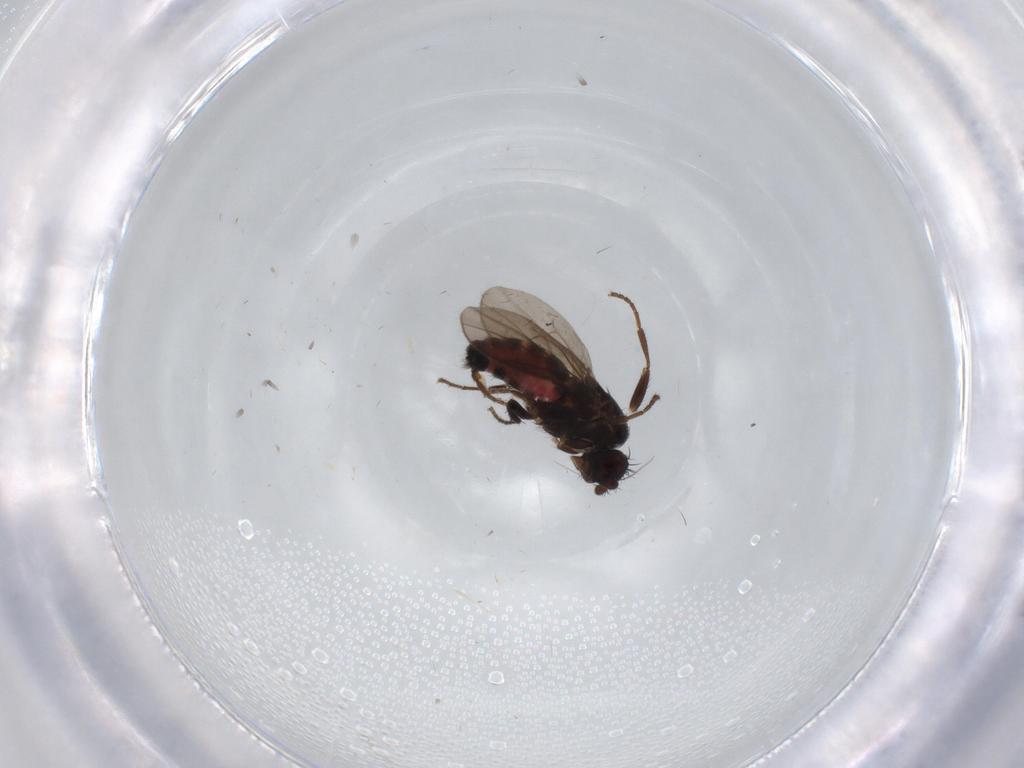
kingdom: Animalia
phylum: Arthropoda
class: Insecta
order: Diptera
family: Sphaeroceridae
